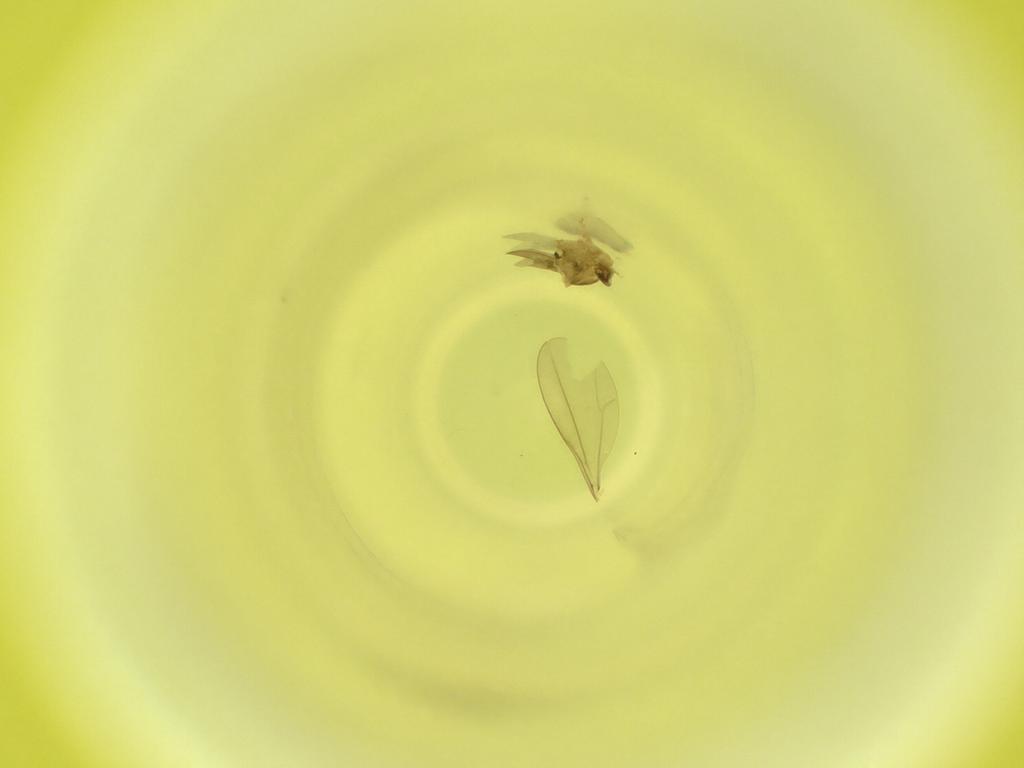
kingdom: Animalia
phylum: Arthropoda
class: Insecta
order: Diptera
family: Cecidomyiidae
